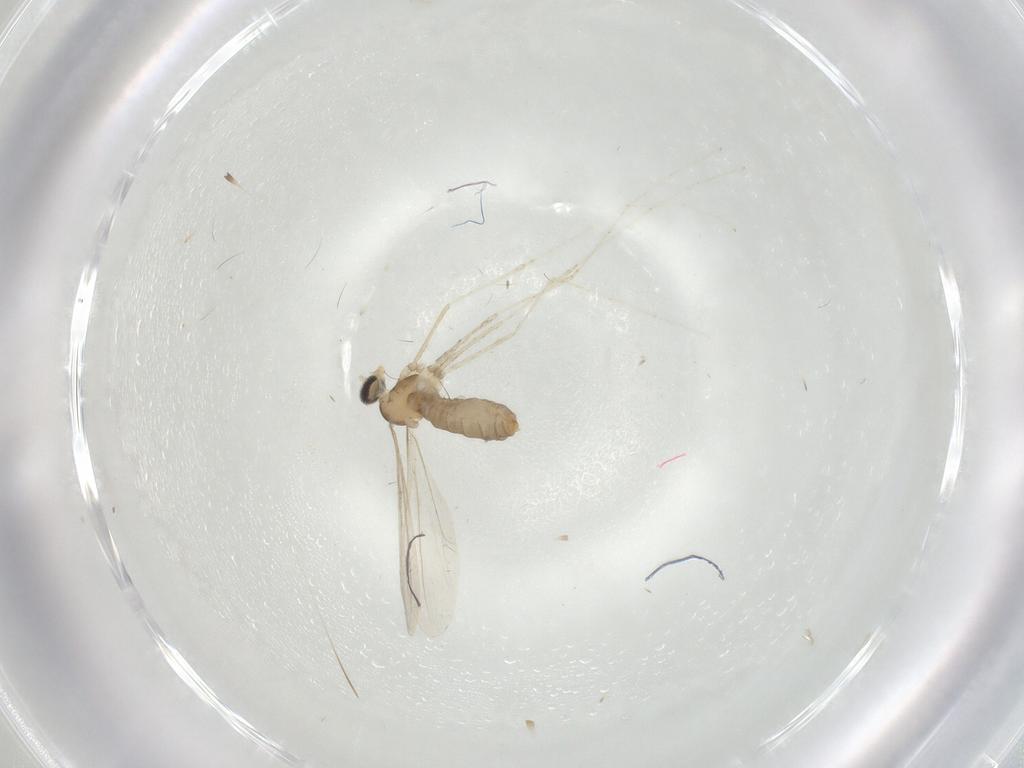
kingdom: Animalia
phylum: Arthropoda
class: Insecta
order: Diptera
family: Cecidomyiidae
